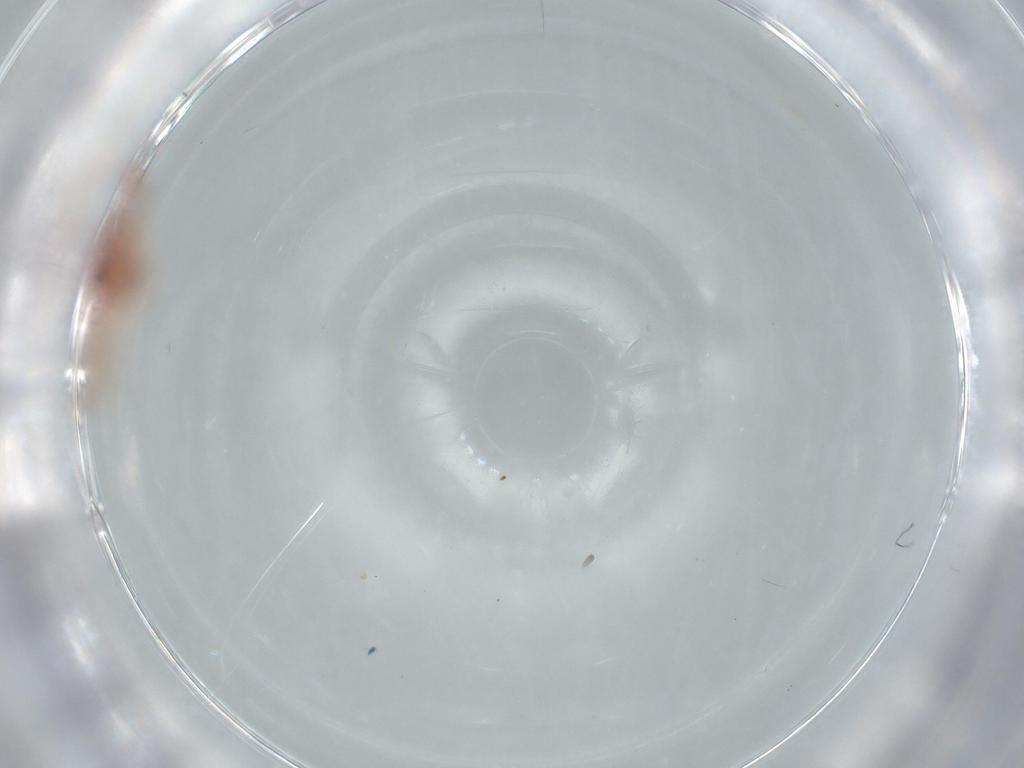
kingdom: Animalia
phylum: Arthropoda
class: Insecta
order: Hemiptera
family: Coccoidea_incertae_sedis
